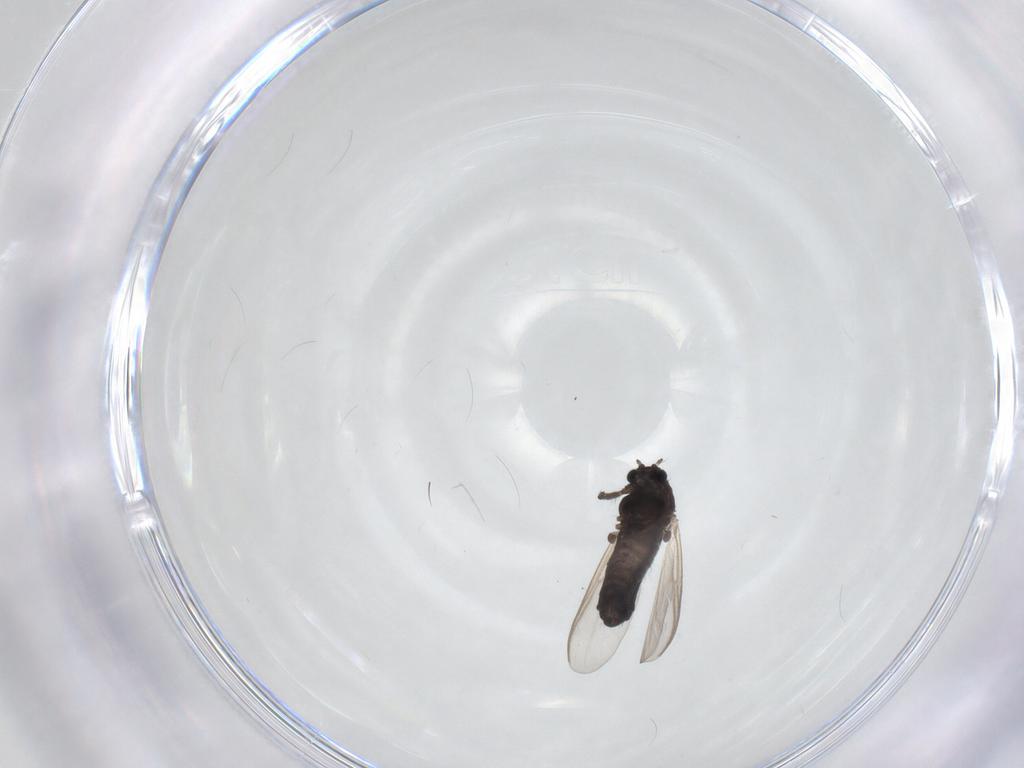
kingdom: Animalia
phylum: Arthropoda
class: Insecta
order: Diptera
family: Chironomidae
